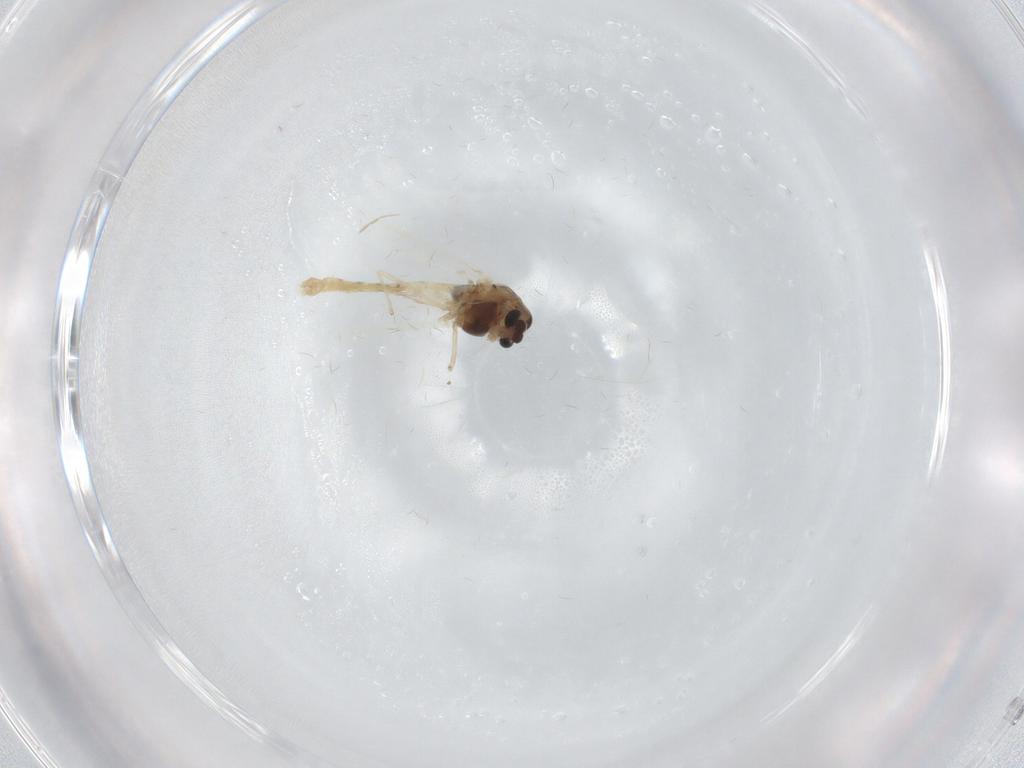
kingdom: Animalia
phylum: Arthropoda
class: Insecta
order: Diptera
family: Chironomidae
